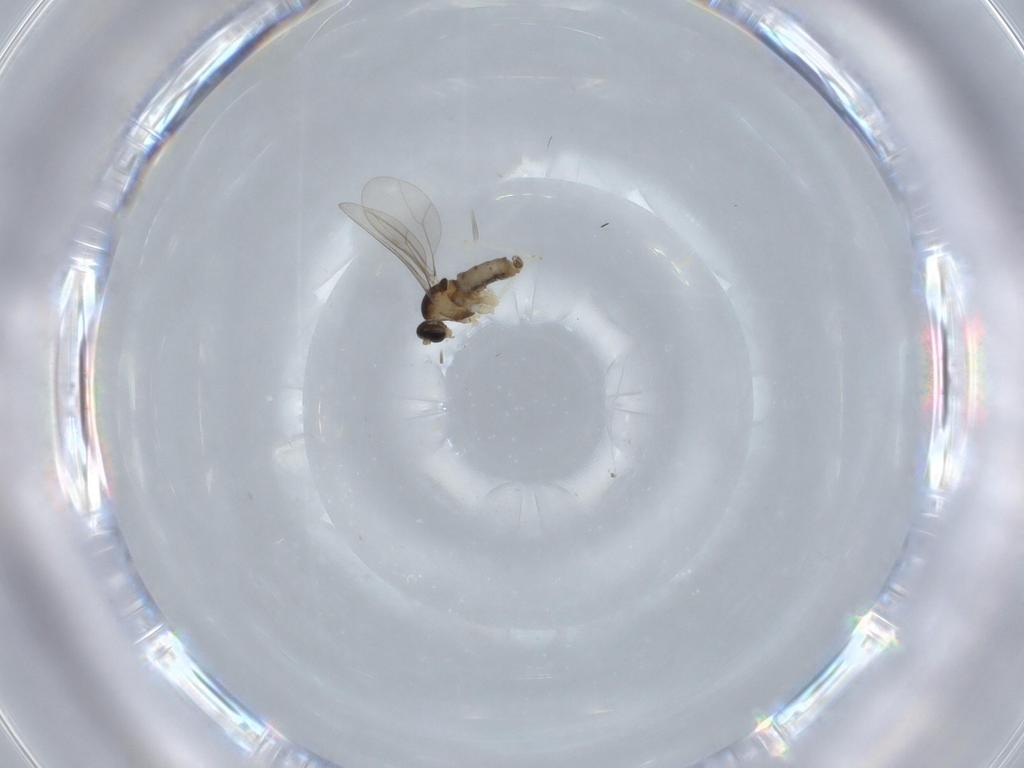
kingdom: Animalia
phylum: Arthropoda
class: Insecta
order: Diptera
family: Cecidomyiidae
